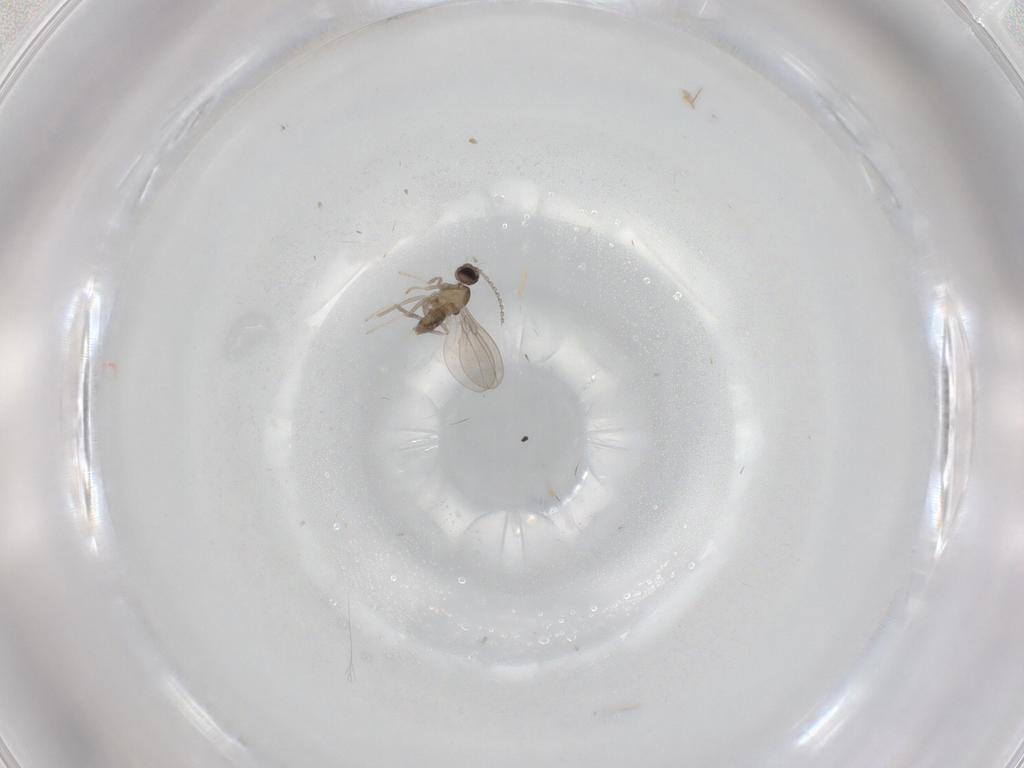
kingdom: Animalia
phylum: Arthropoda
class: Insecta
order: Diptera
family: Cecidomyiidae
